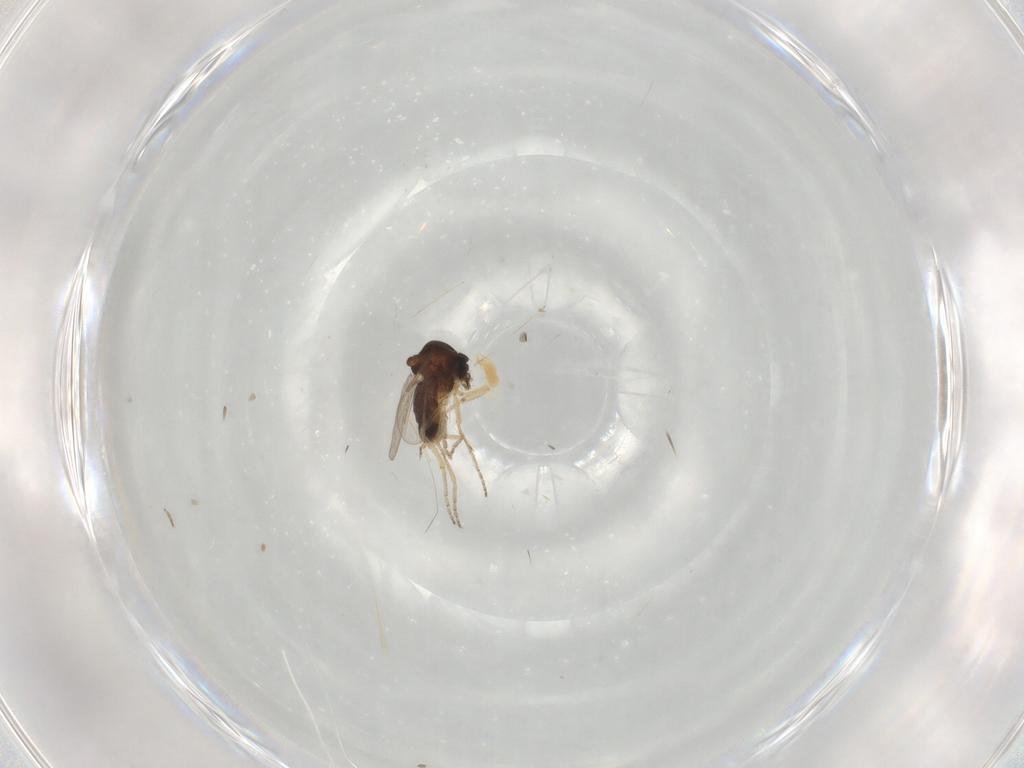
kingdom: Animalia
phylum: Arthropoda
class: Insecta
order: Diptera
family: Ceratopogonidae
